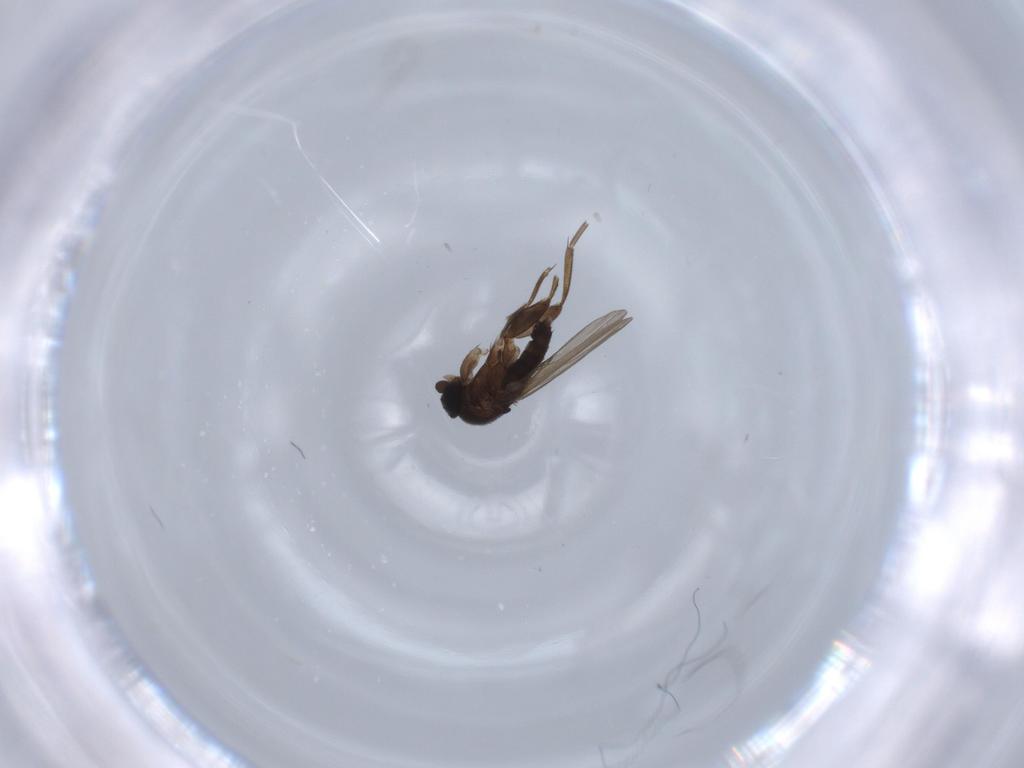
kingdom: Animalia
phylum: Arthropoda
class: Insecta
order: Diptera
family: Phoridae
